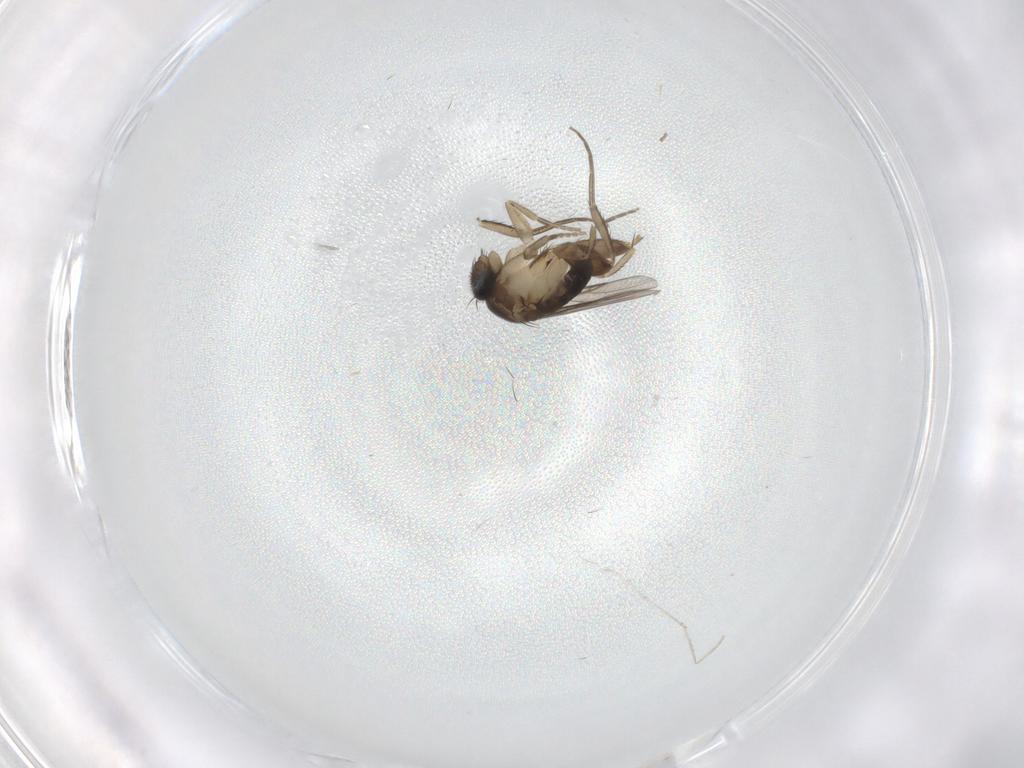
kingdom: Animalia
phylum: Arthropoda
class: Insecta
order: Diptera
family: Phoridae
